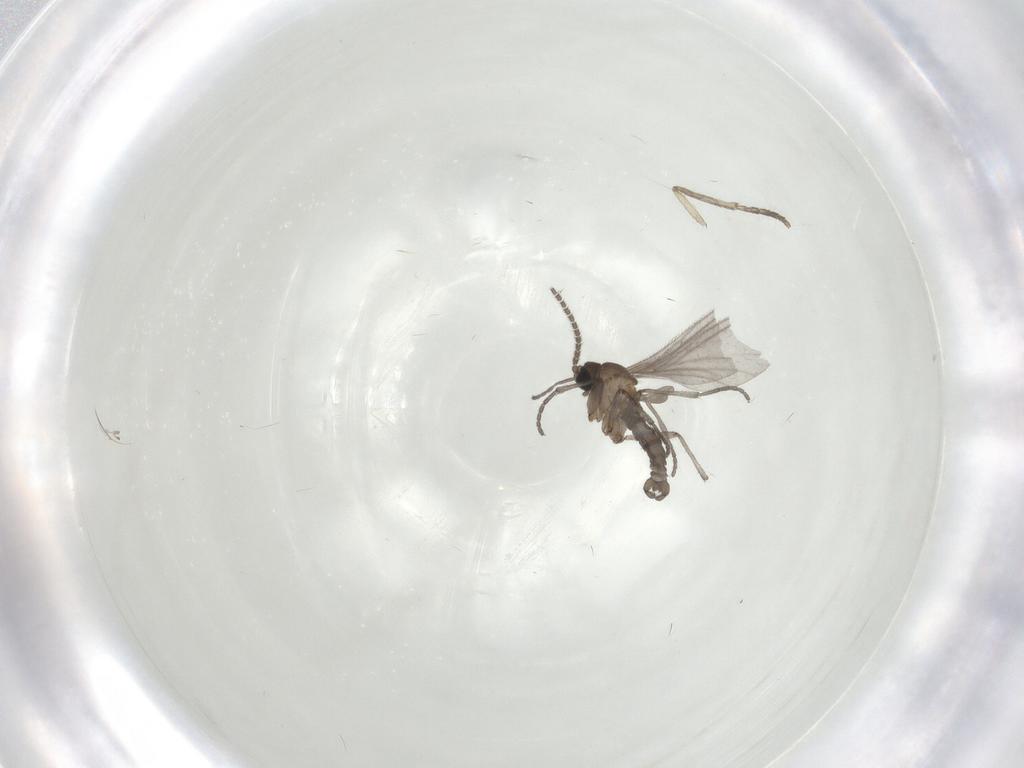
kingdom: Animalia
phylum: Arthropoda
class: Insecta
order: Diptera
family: Sciaridae
